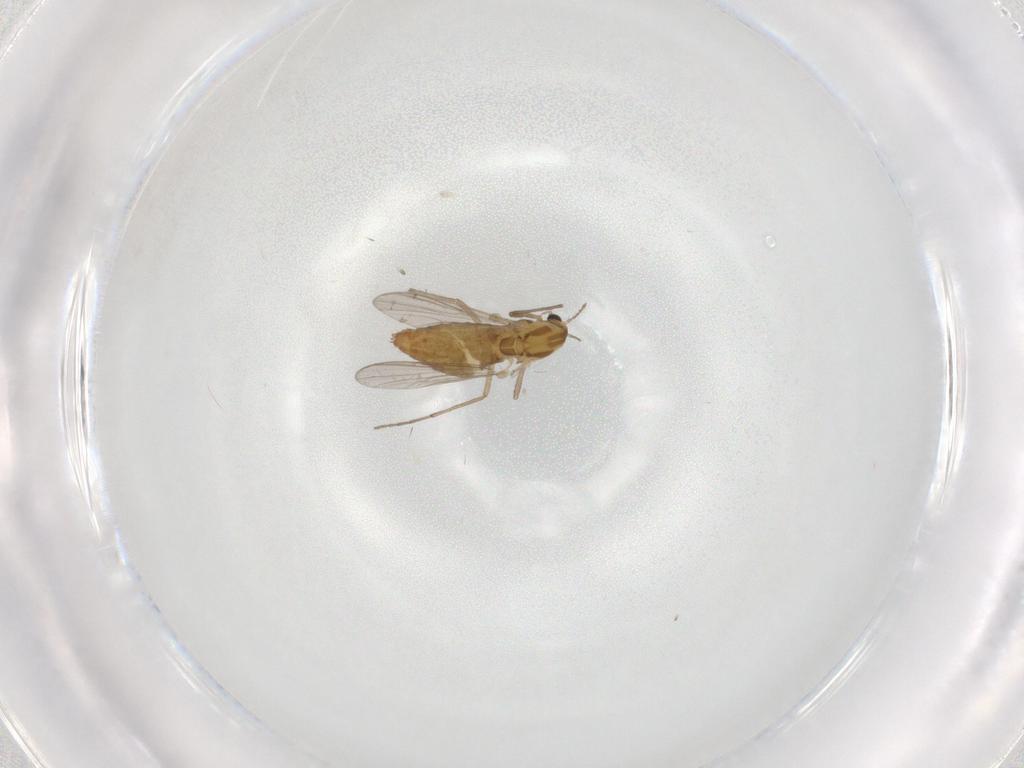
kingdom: Animalia
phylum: Arthropoda
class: Insecta
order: Diptera
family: Chironomidae
